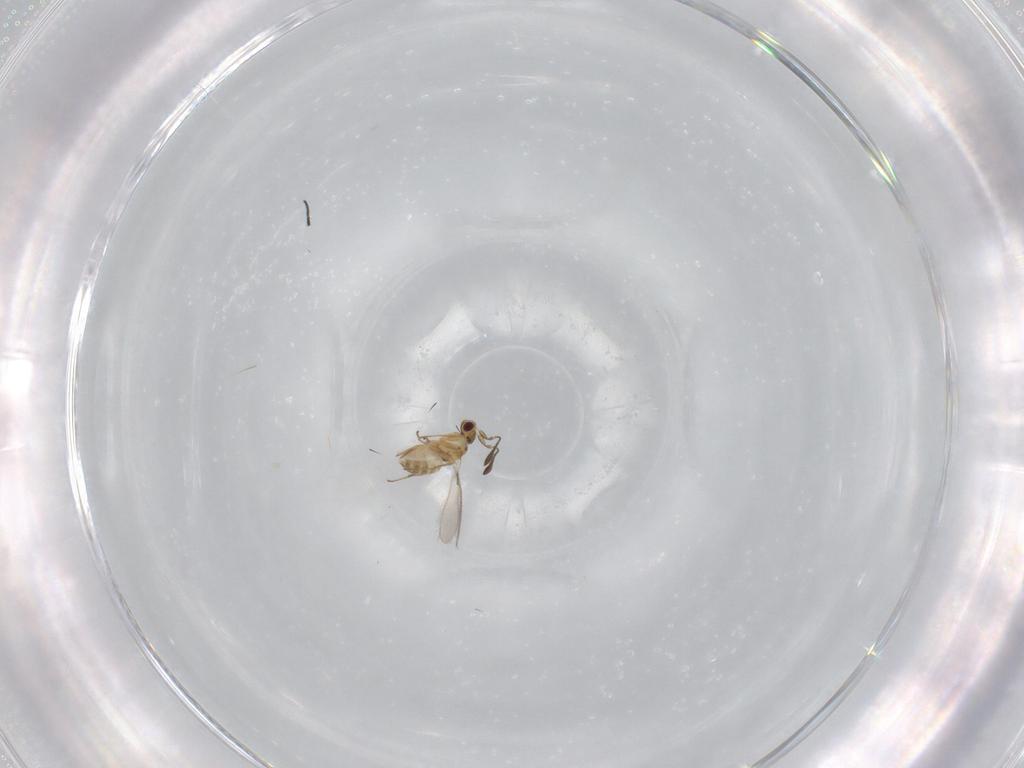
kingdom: Animalia
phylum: Arthropoda
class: Insecta
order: Hymenoptera
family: Mymaridae
